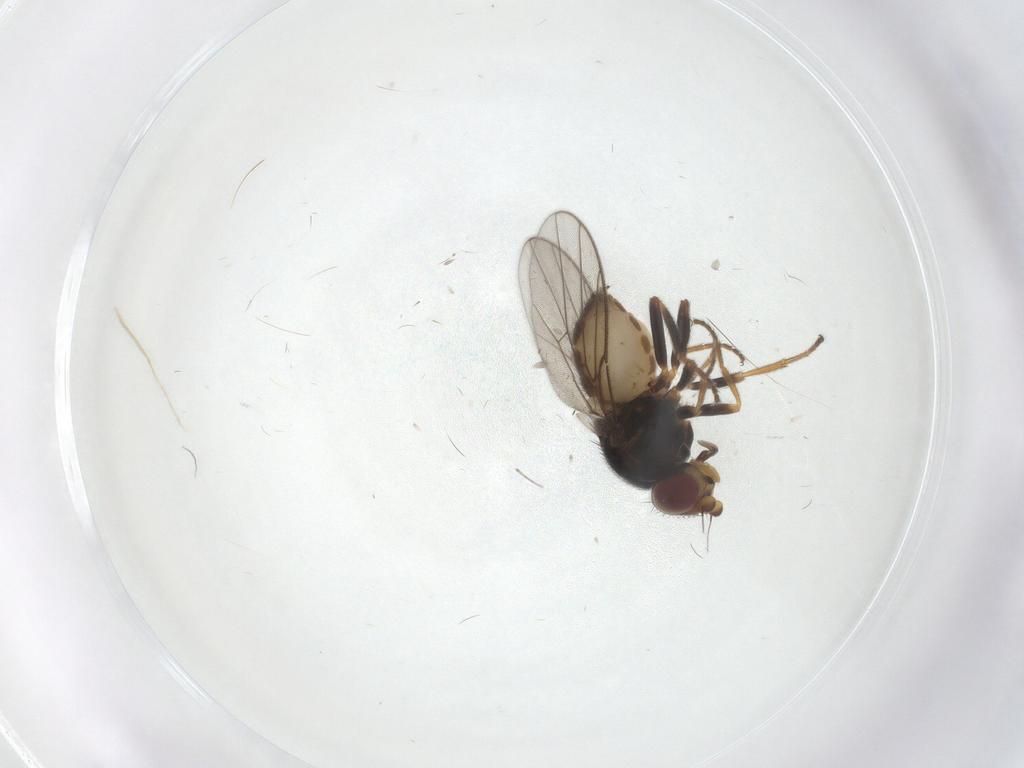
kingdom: Animalia
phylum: Arthropoda
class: Insecta
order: Diptera
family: Chloropidae
